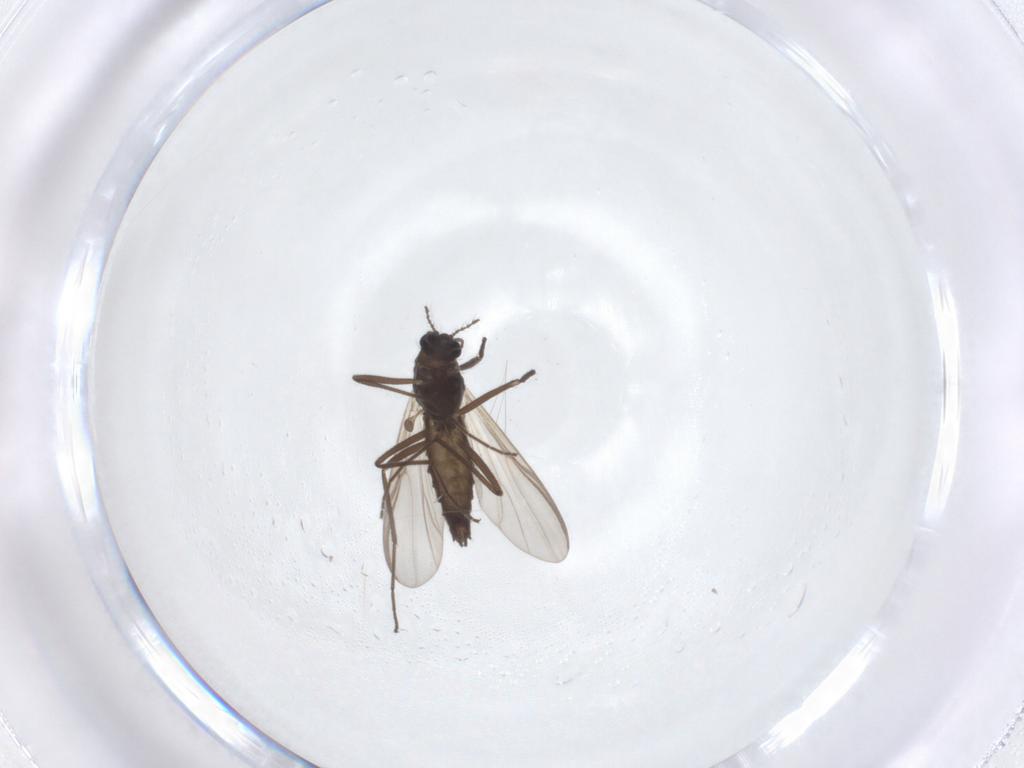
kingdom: Animalia
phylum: Arthropoda
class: Insecta
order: Diptera
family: Chironomidae
